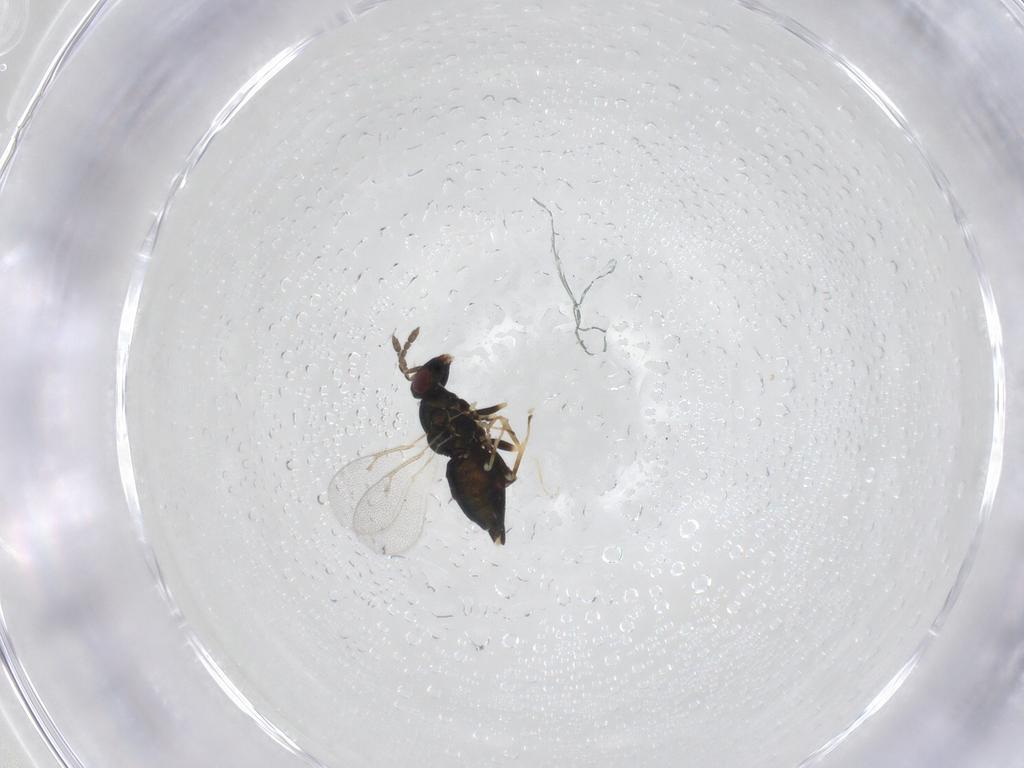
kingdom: Animalia
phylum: Arthropoda
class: Insecta
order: Hymenoptera
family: Eulophidae
